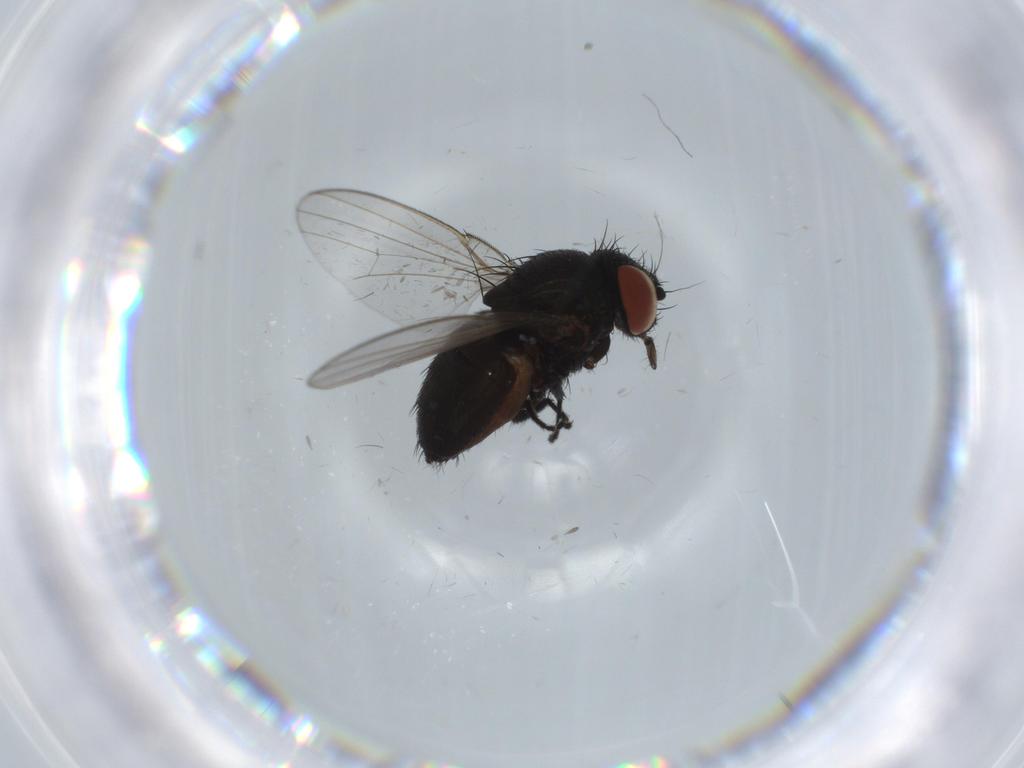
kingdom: Animalia
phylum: Arthropoda
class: Insecta
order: Diptera
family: Milichiidae
